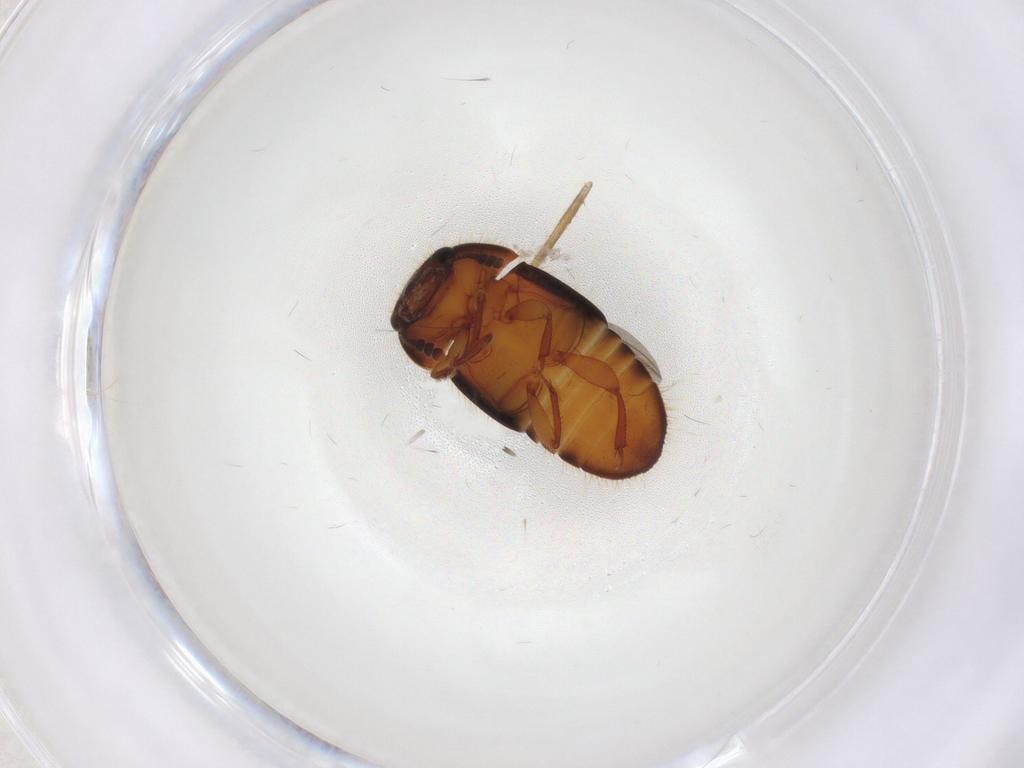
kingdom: Animalia
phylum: Arthropoda
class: Insecta
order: Coleoptera
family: Nitidulidae
